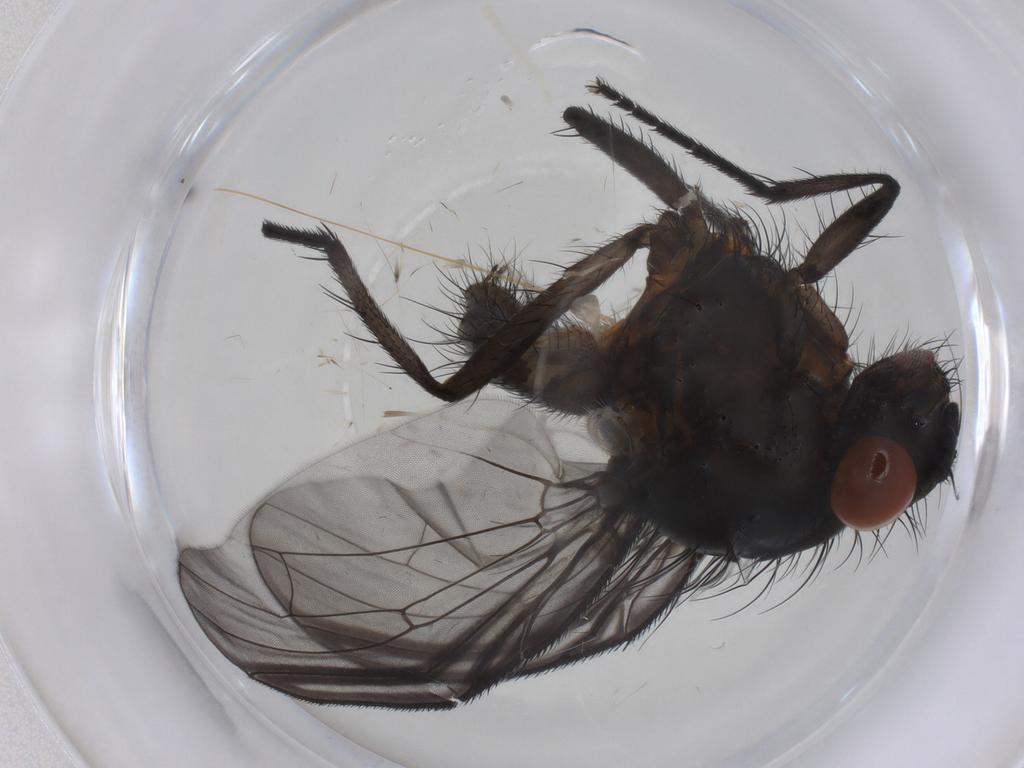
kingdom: Animalia
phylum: Arthropoda
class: Insecta
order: Diptera
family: Anthomyiidae
